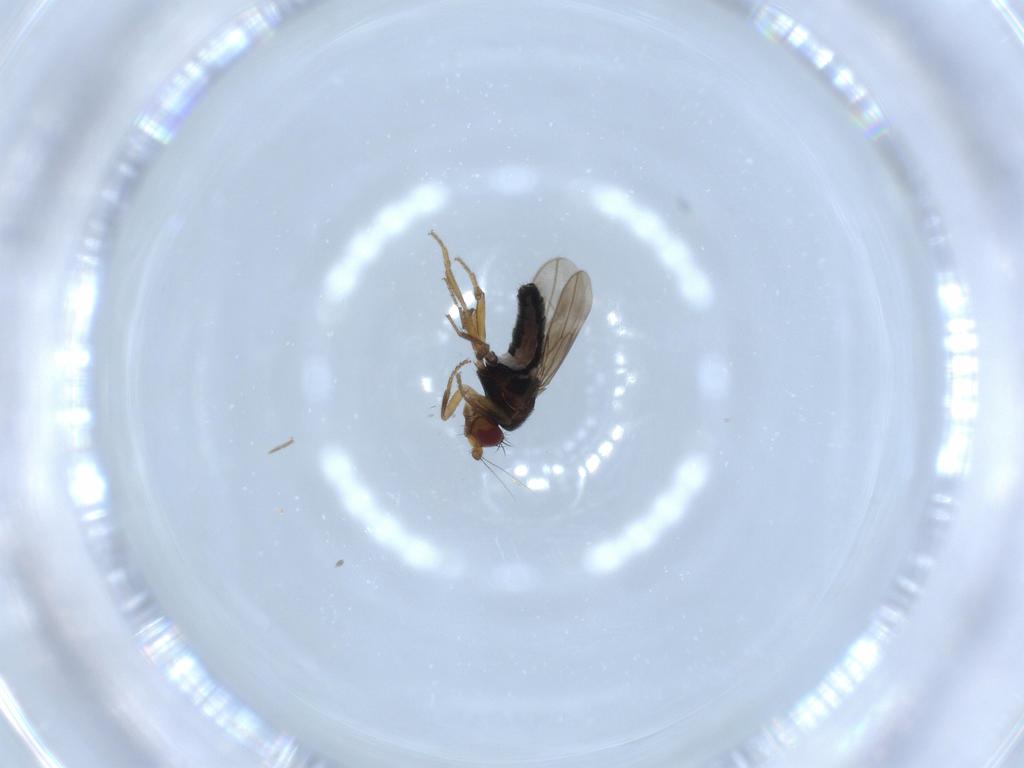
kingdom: Animalia
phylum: Arthropoda
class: Insecta
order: Diptera
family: Sphaeroceridae
